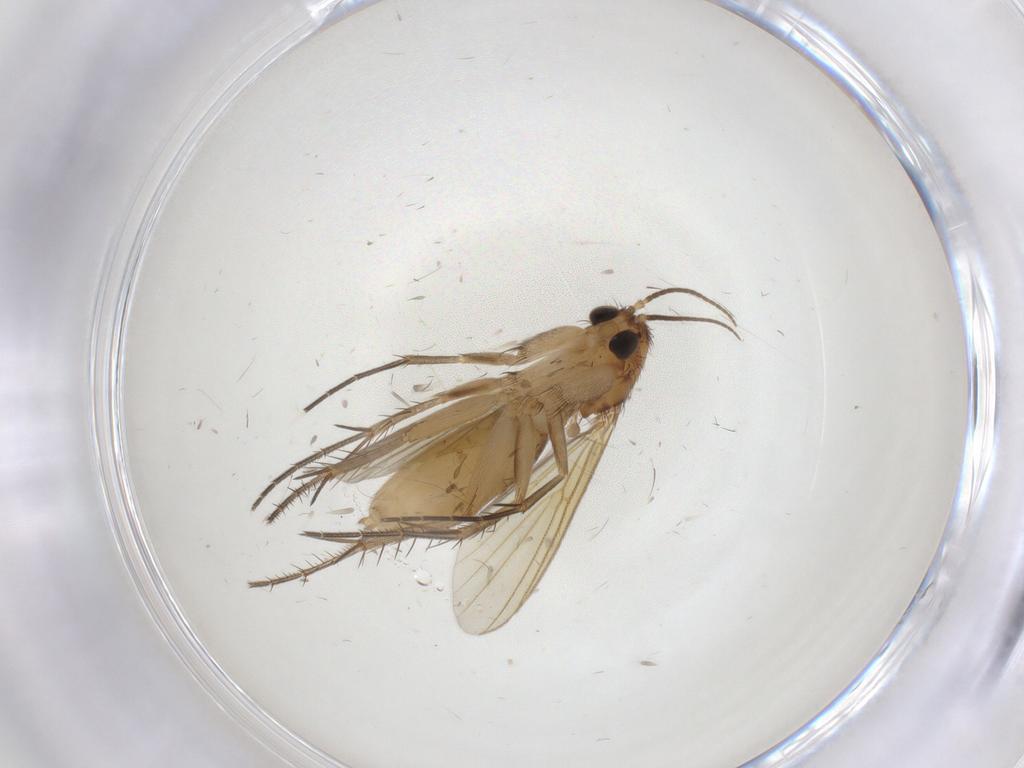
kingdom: Animalia
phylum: Arthropoda
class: Insecta
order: Diptera
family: Mycetophilidae
